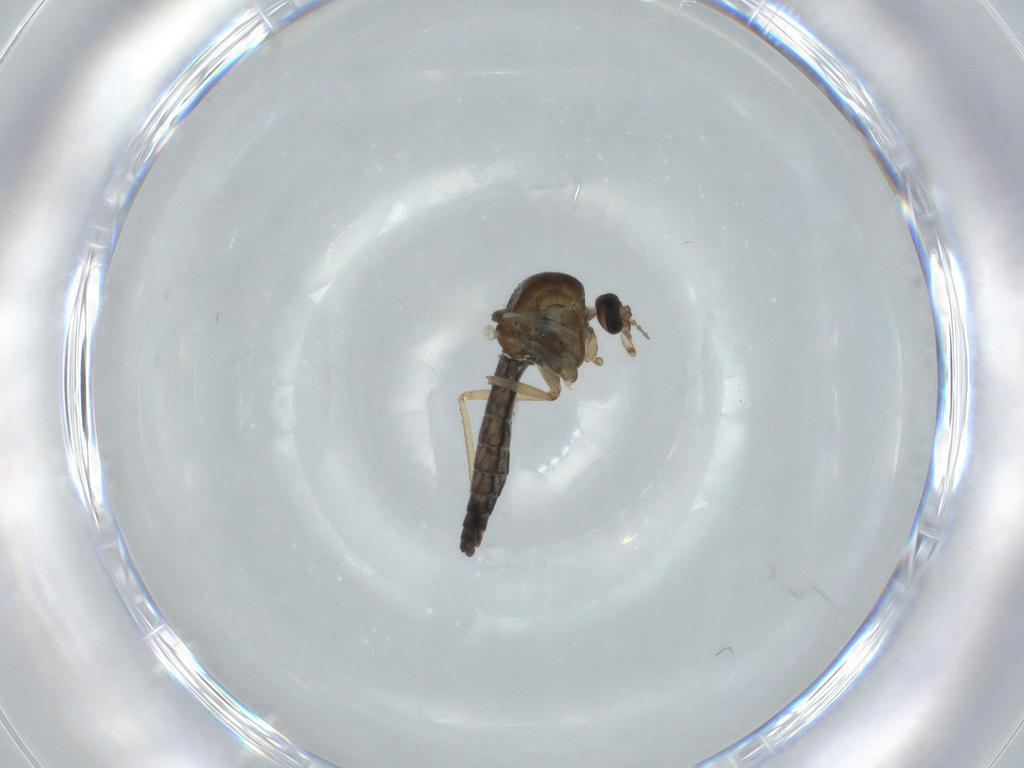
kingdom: Animalia
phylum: Arthropoda
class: Insecta
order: Diptera
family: Ceratopogonidae
